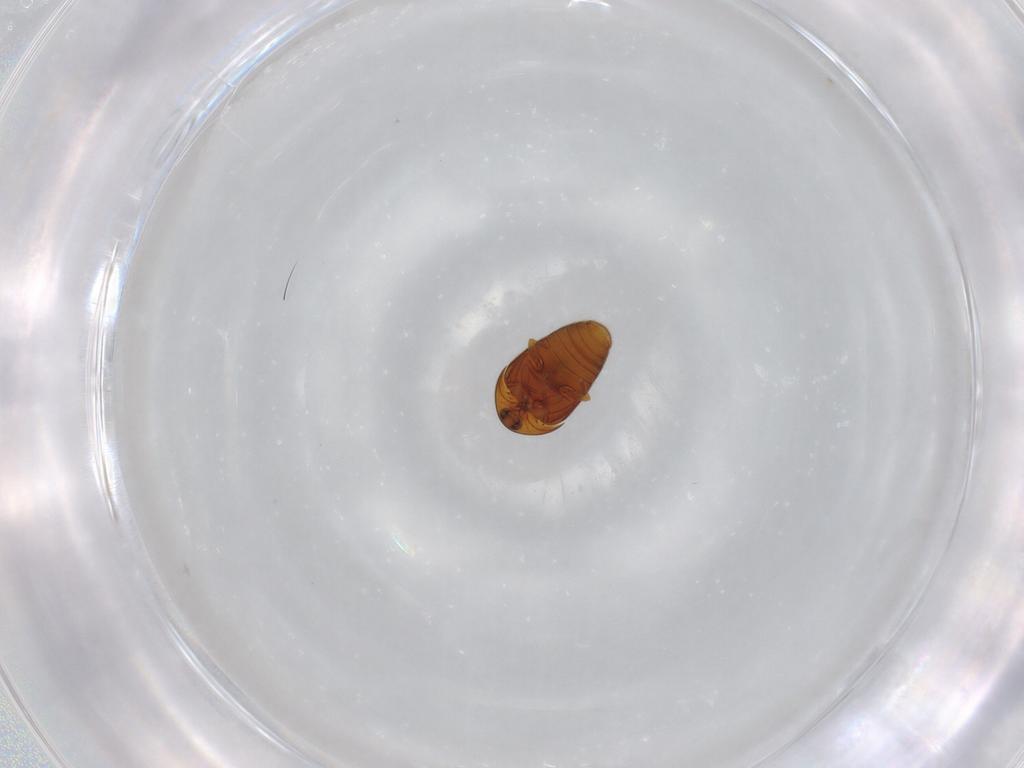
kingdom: Animalia
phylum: Arthropoda
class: Insecta
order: Coleoptera
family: Corylophidae
